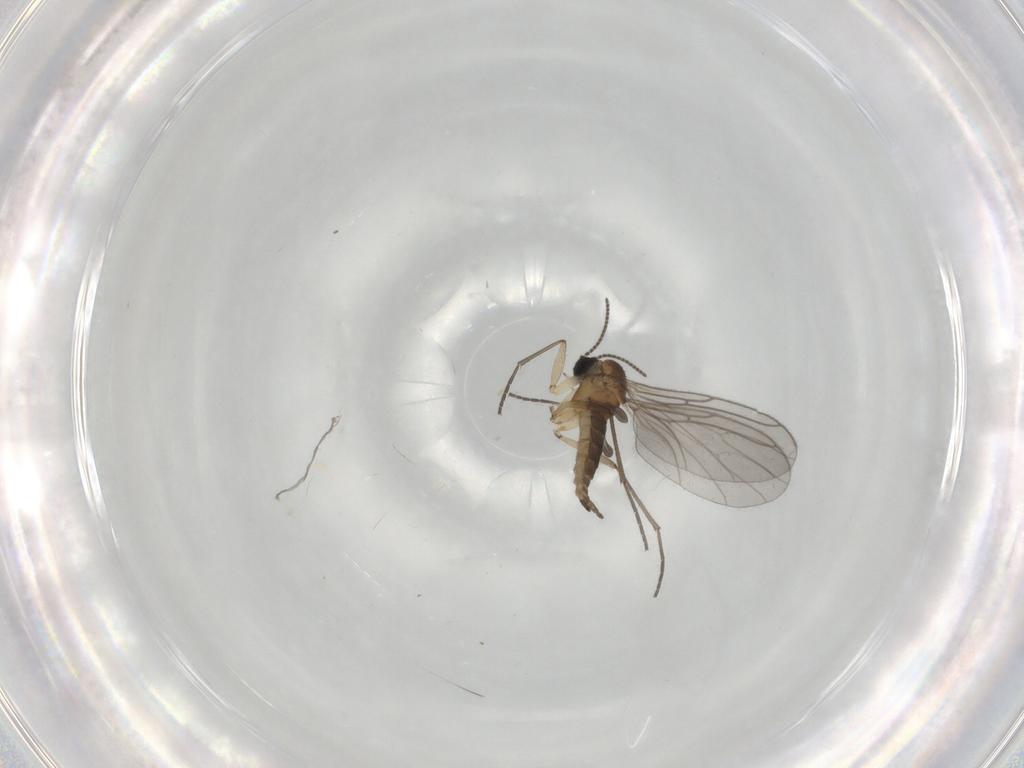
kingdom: Animalia
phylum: Arthropoda
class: Insecta
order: Diptera
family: Sciaridae
